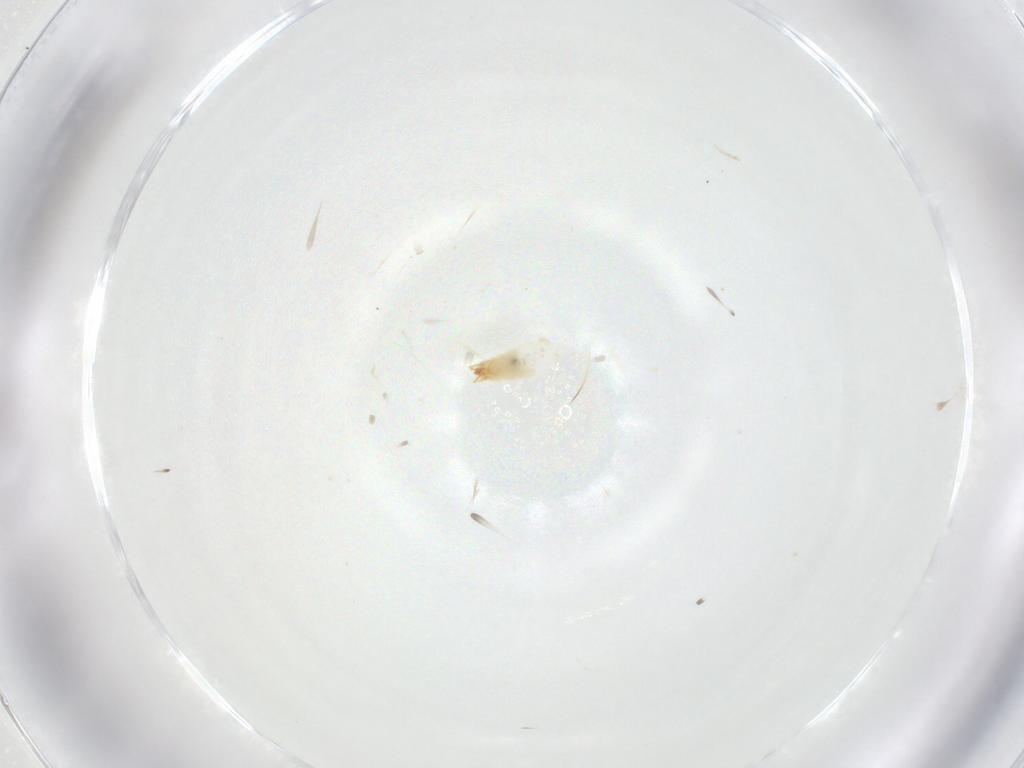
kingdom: Animalia
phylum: Arthropoda
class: Insecta
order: Lepidoptera
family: Crambidae
